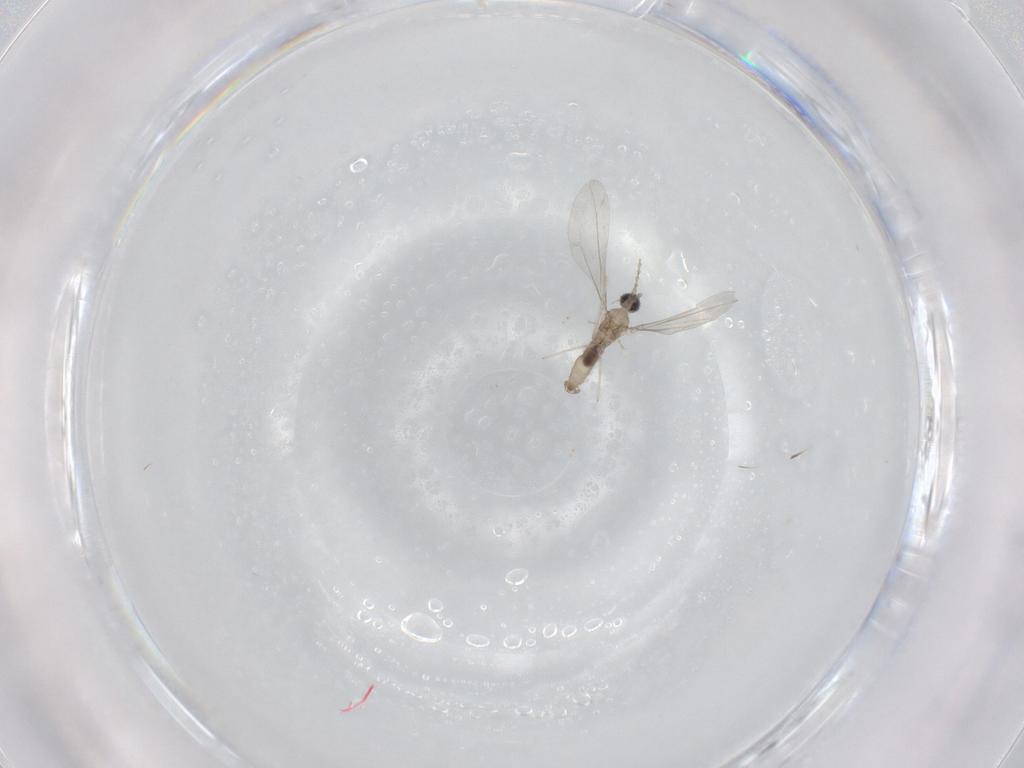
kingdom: Animalia
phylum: Arthropoda
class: Insecta
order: Diptera
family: Cecidomyiidae
